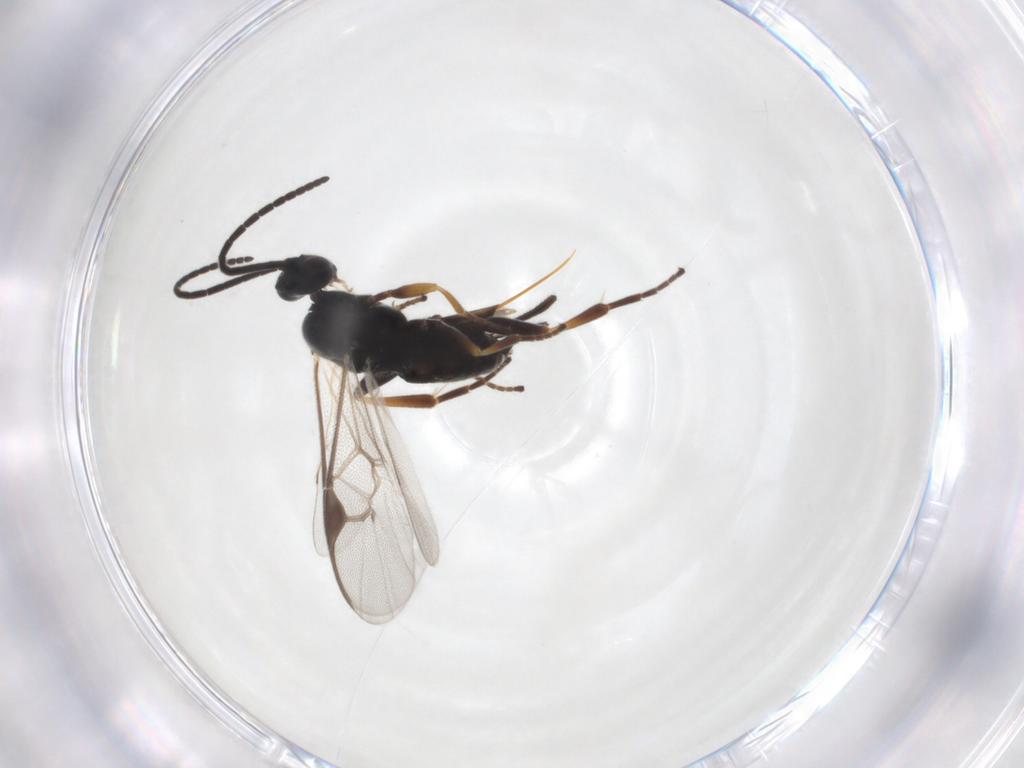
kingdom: Animalia
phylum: Arthropoda
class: Insecta
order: Hymenoptera
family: Braconidae
